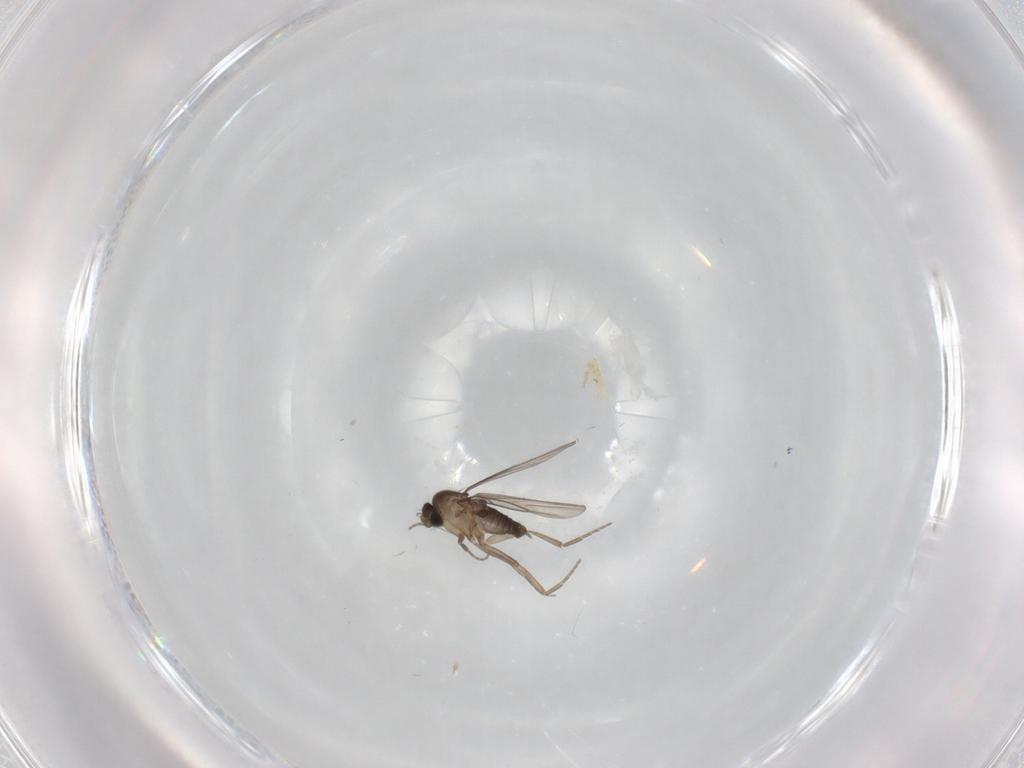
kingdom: Animalia
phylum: Arthropoda
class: Insecta
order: Diptera
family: Phoridae
